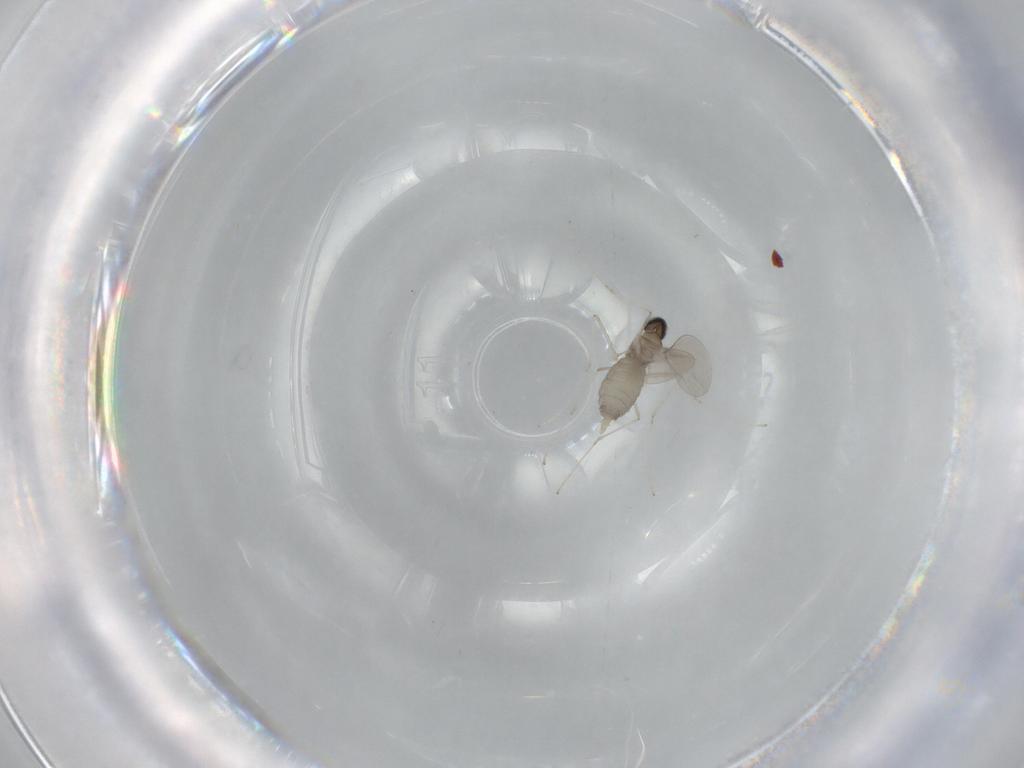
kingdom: Animalia
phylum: Arthropoda
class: Insecta
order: Diptera
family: Cecidomyiidae
